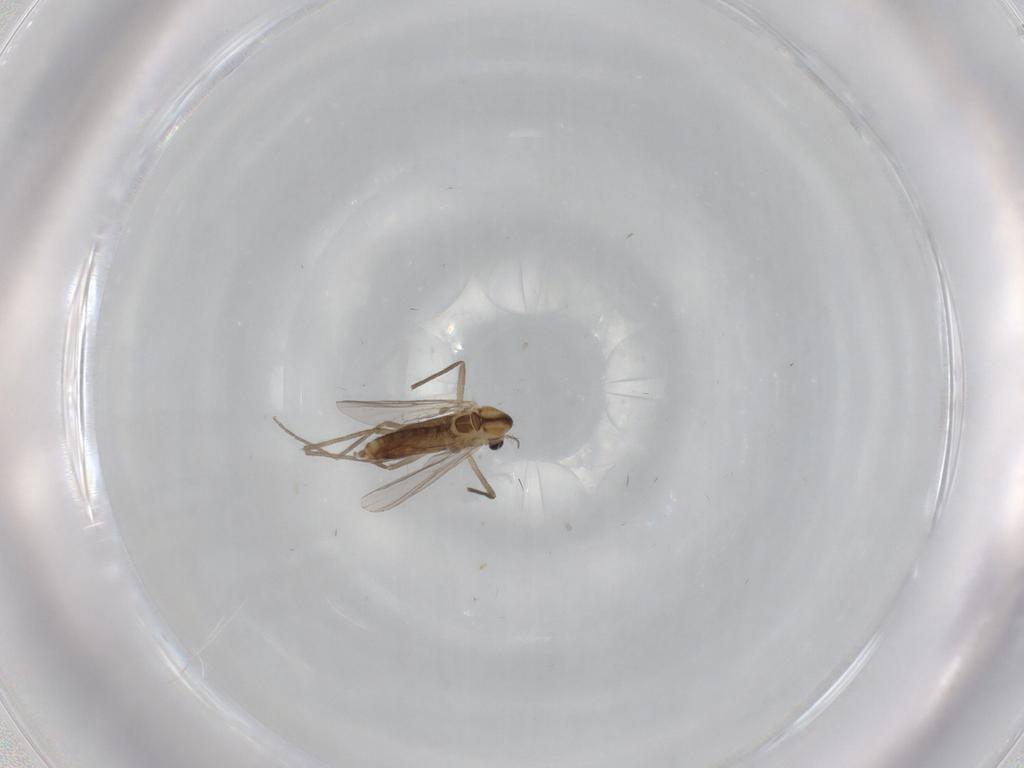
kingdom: Animalia
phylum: Arthropoda
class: Insecta
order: Diptera
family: Chironomidae
